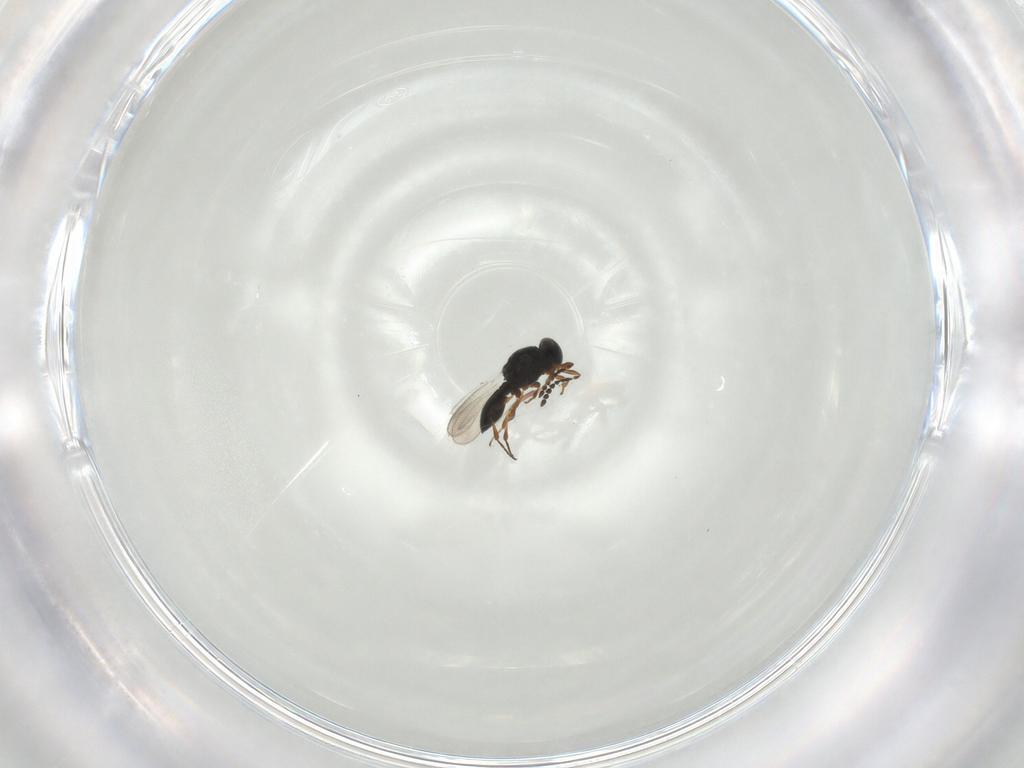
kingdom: Animalia
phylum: Arthropoda
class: Insecta
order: Hymenoptera
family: Platygastridae
